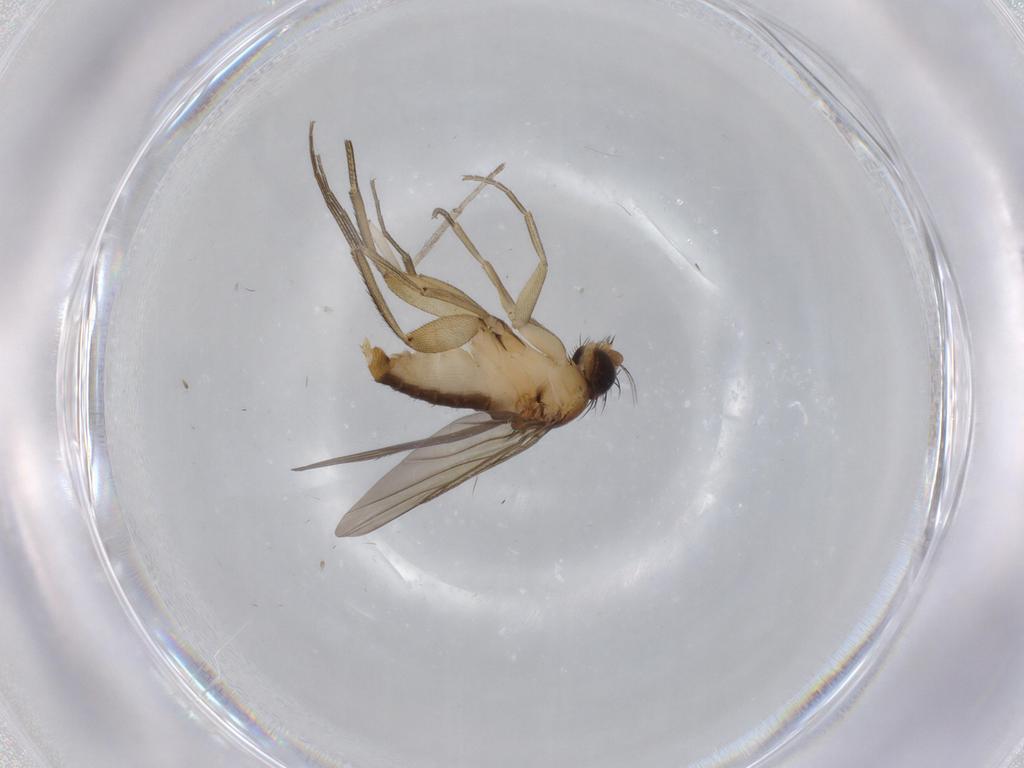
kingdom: Animalia
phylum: Arthropoda
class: Insecta
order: Diptera
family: Phoridae
